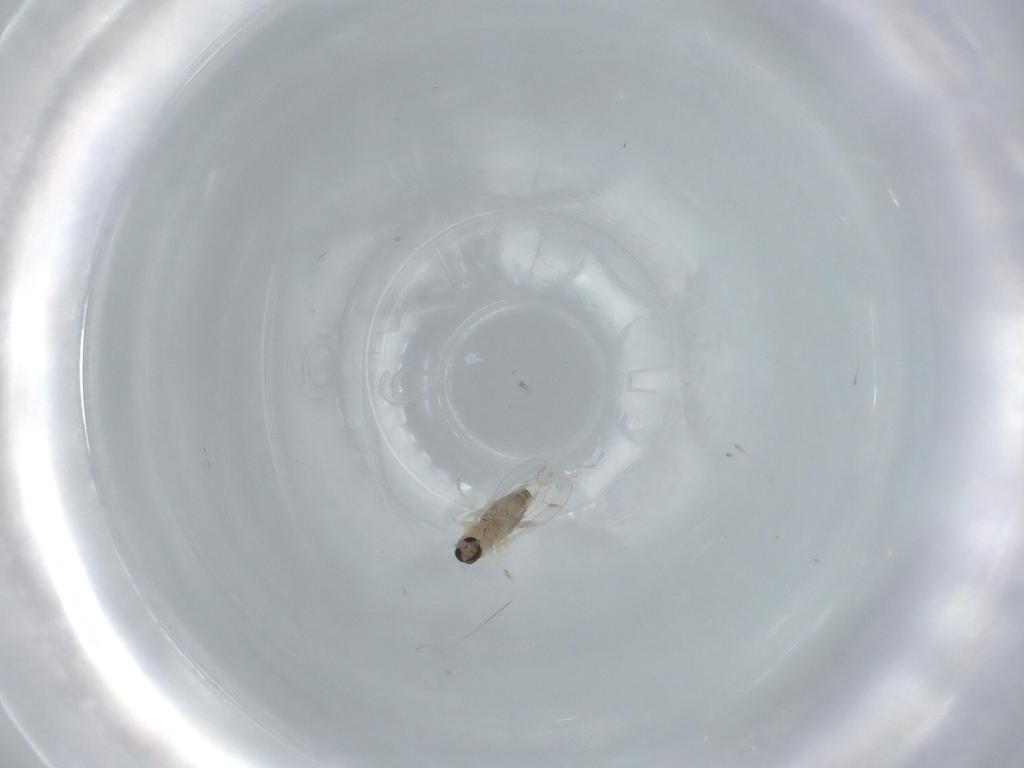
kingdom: Animalia
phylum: Arthropoda
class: Insecta
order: Diptera
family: Cecidomyiidae
